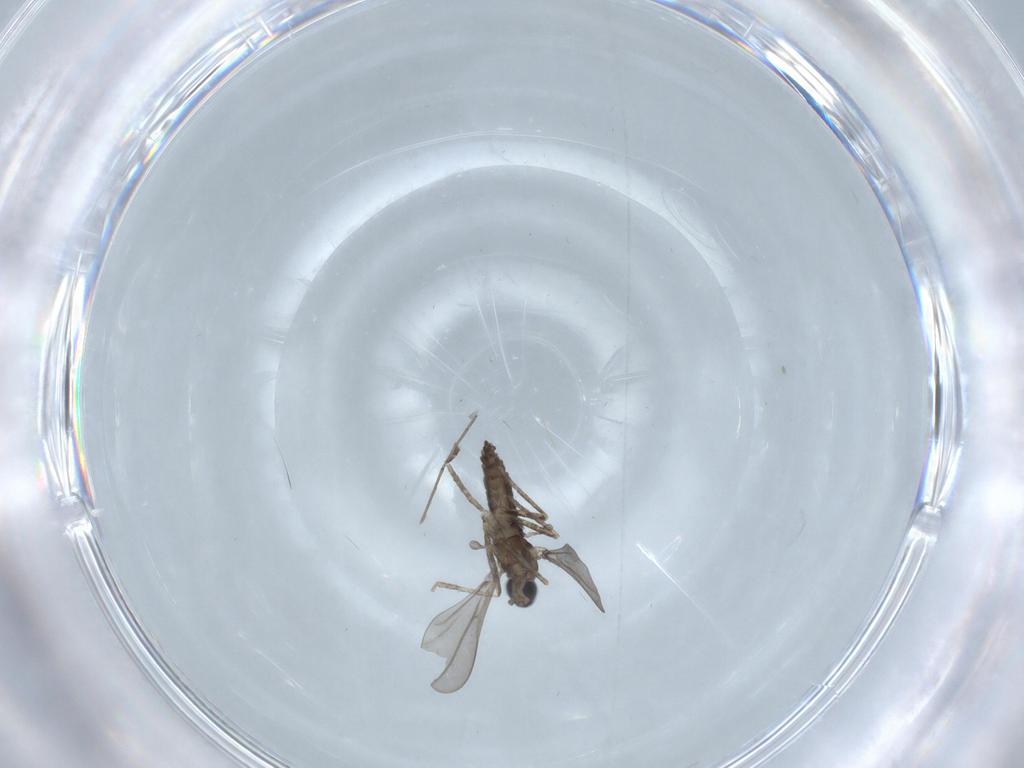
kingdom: Animalia
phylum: Arthropoda
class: Insecta
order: Diptera
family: Cecidomyiidae
